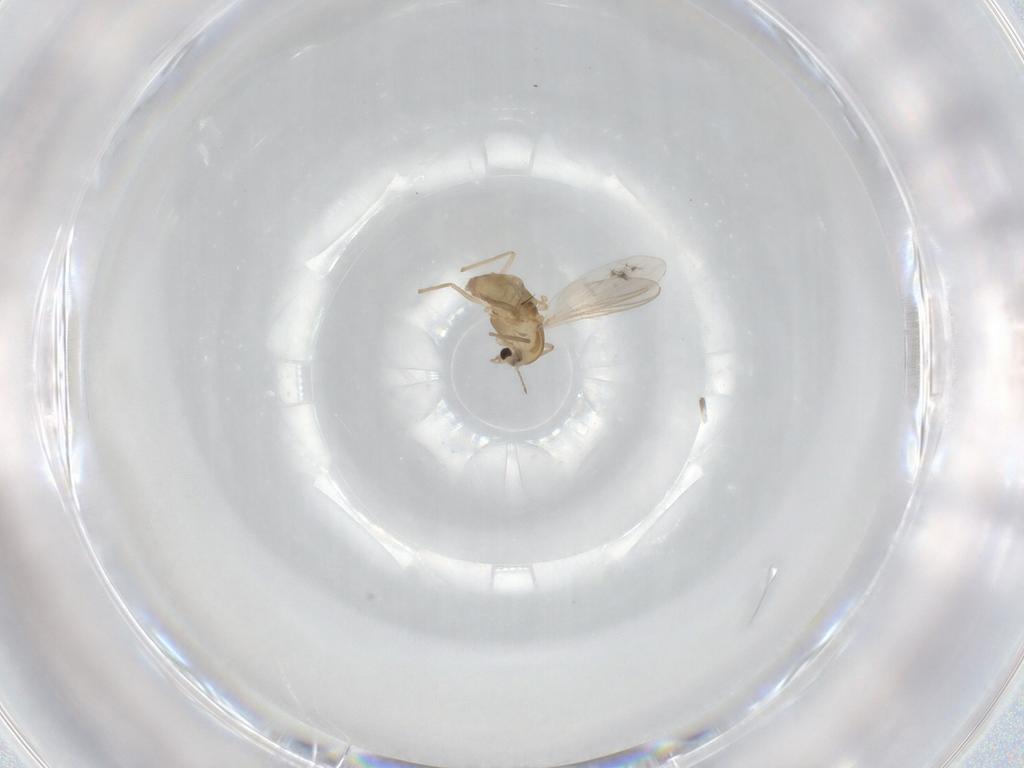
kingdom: Animalia
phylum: Arthropoda
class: Insecta
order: Diptera
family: Chironomidae
